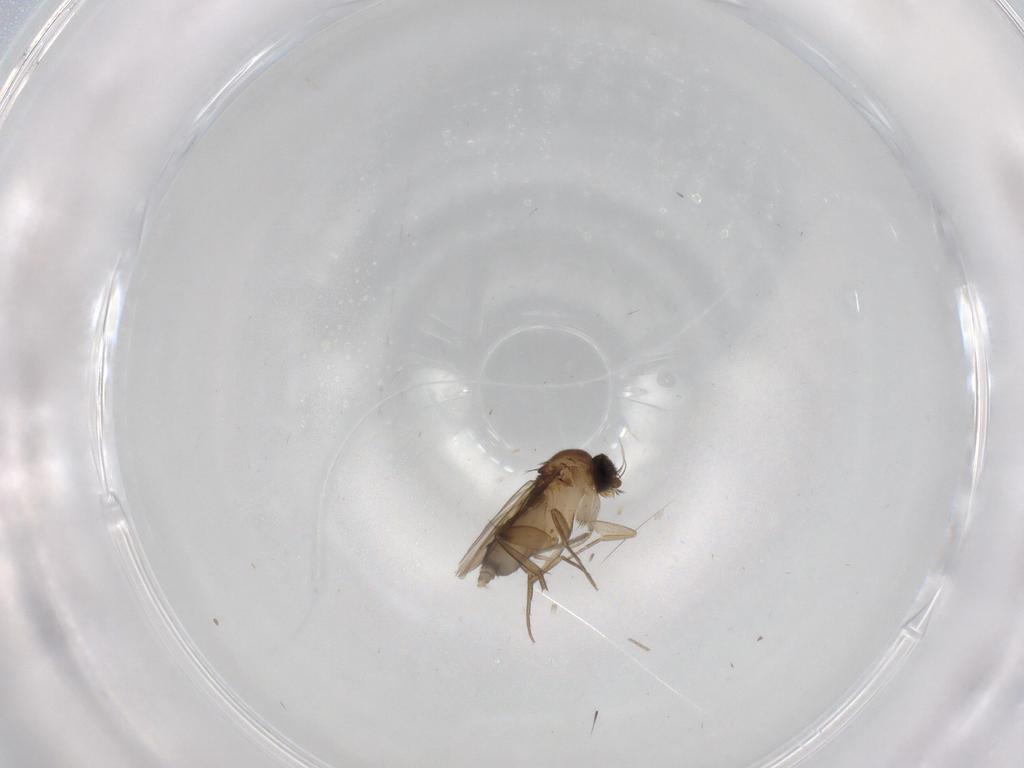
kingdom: Animalia
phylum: Arthropoda
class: Insecta
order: Diptera
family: Phoridae
